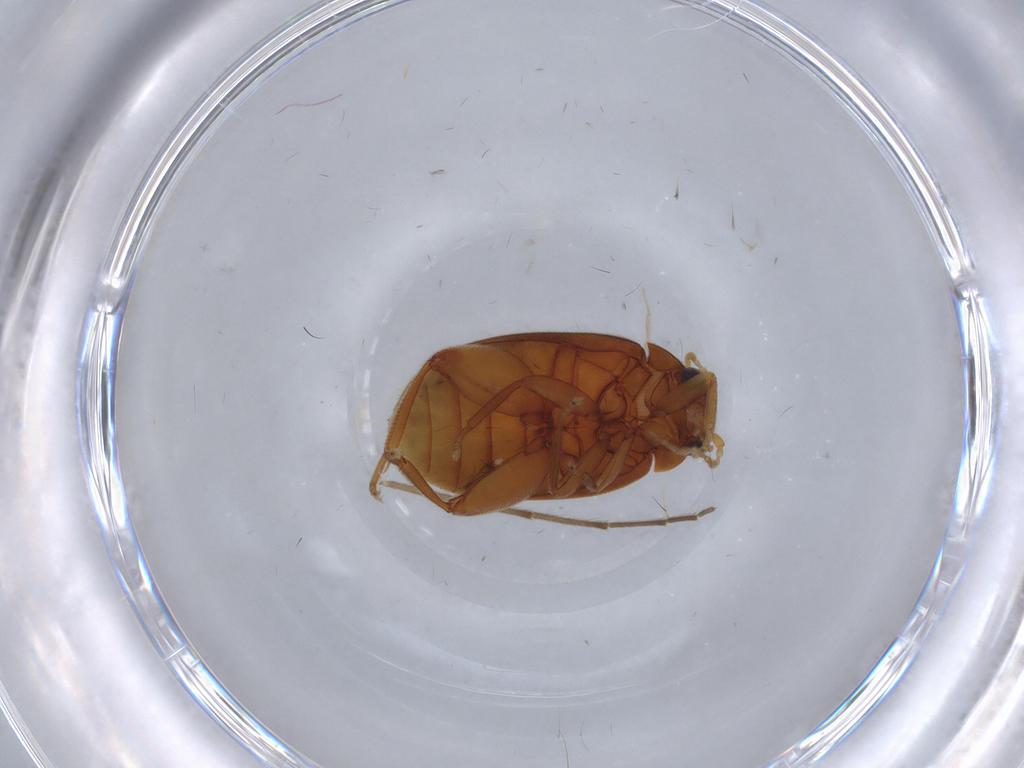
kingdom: Animalia
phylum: Arthropoda
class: Insecta
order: Coleoptera
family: Scirtidae
